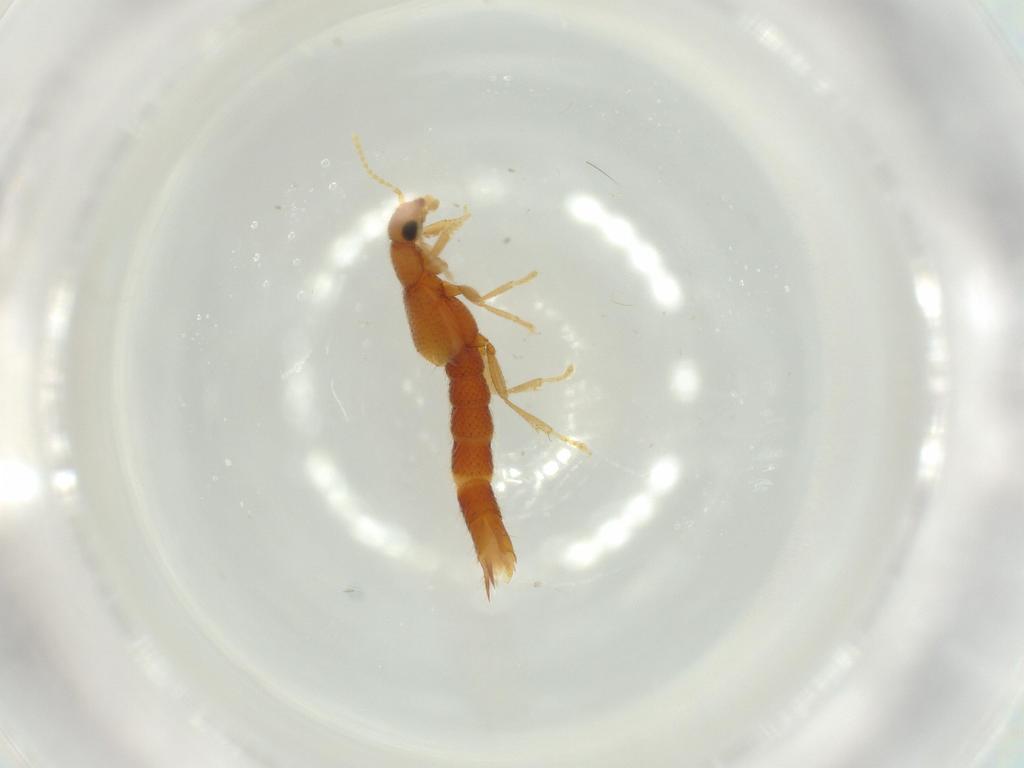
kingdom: Animalia
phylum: Arthropoda
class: Insecta
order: Coleoptera
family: Staphylinidae
